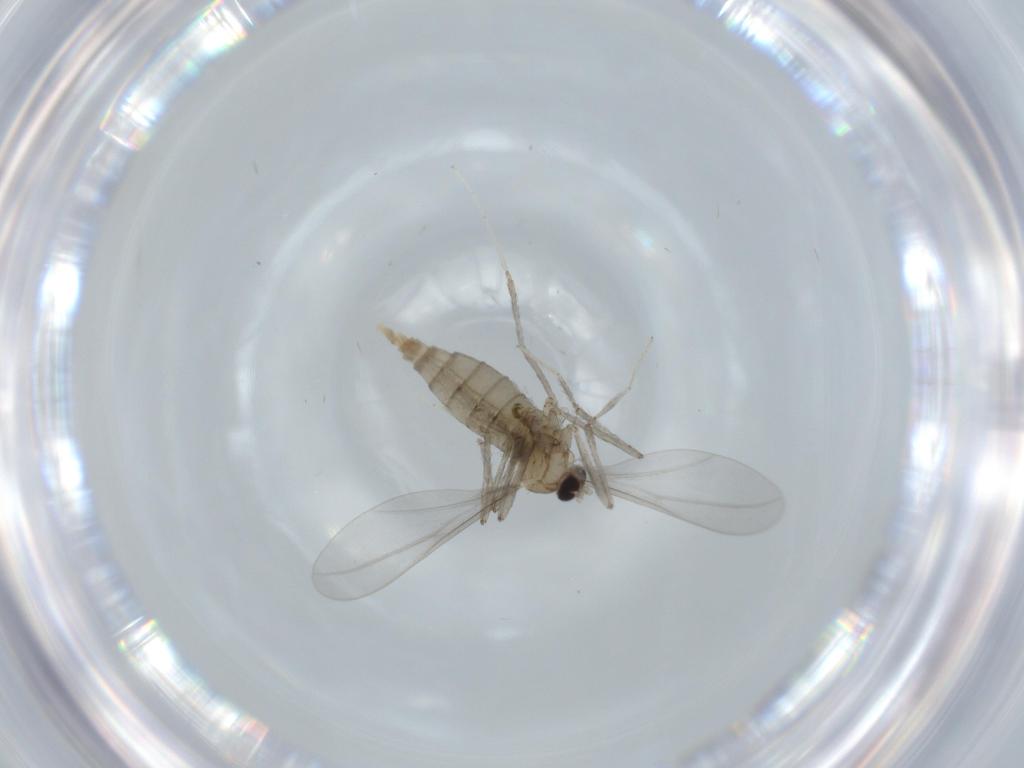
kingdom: Animalia
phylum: Arthropoda
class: Insecta
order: Diptera
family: Cecidomyiidae
